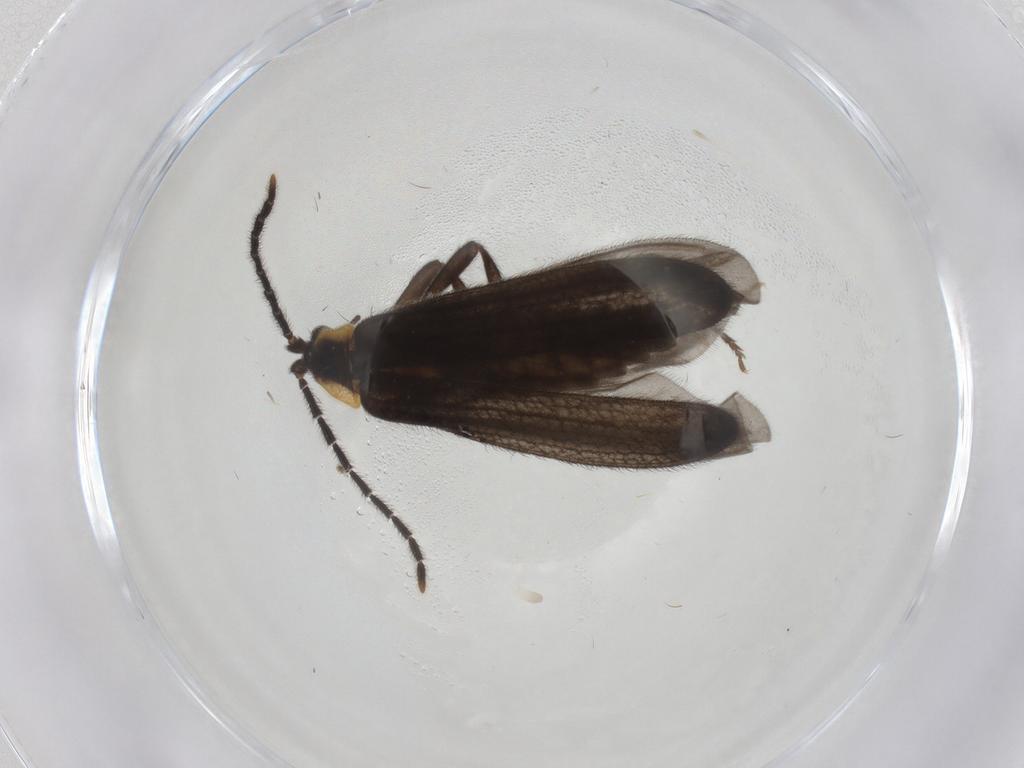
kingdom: Animalia
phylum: Arthropoda
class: Insecta
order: Coleoptera
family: Lycidae
